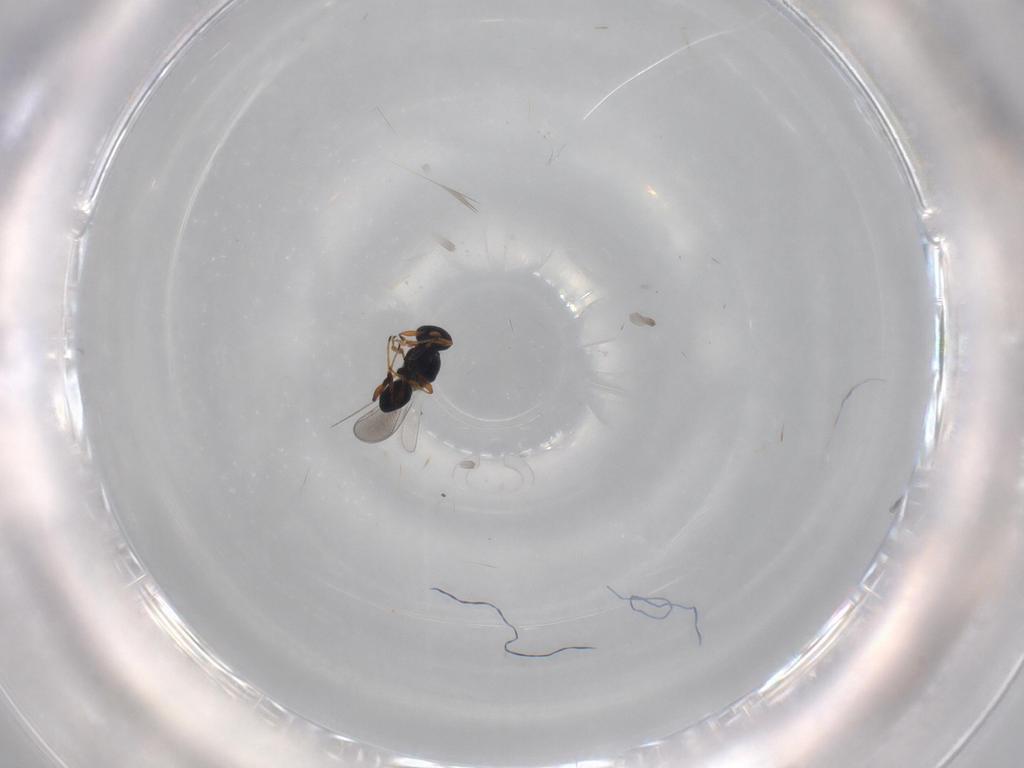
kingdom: Animalia
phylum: Arthropoda
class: Insecta
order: Hymenoptera
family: Platygastridae
